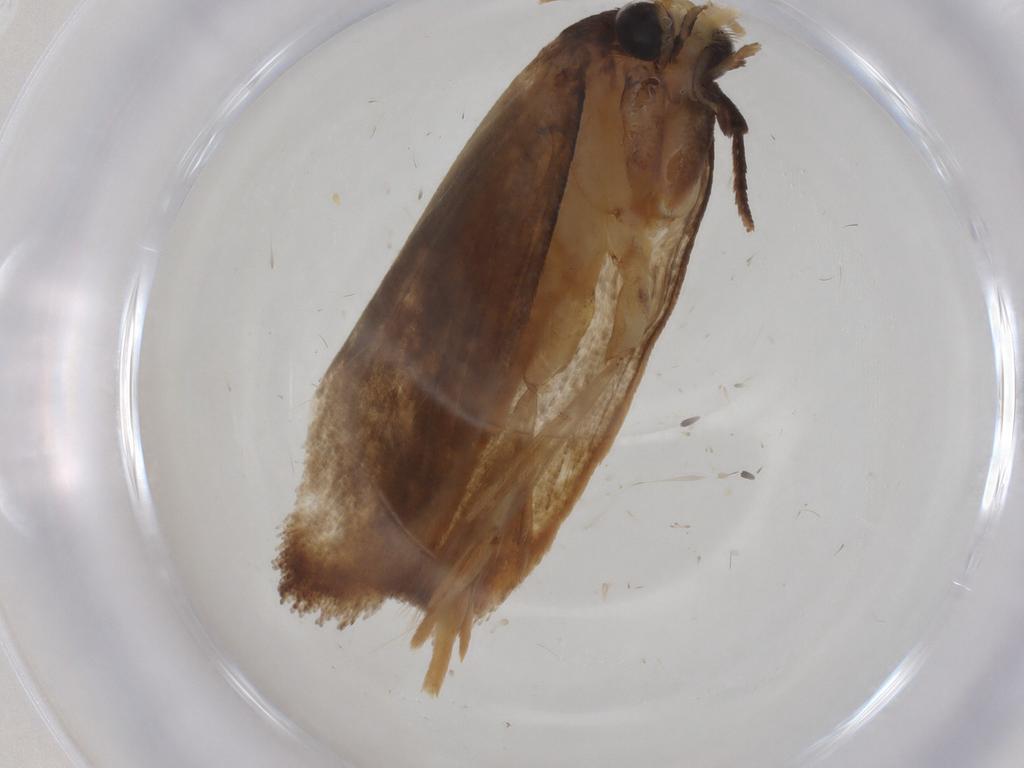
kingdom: Animalia
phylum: Arthropoda
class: Insecta
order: Lepidoptera
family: Erebidae
